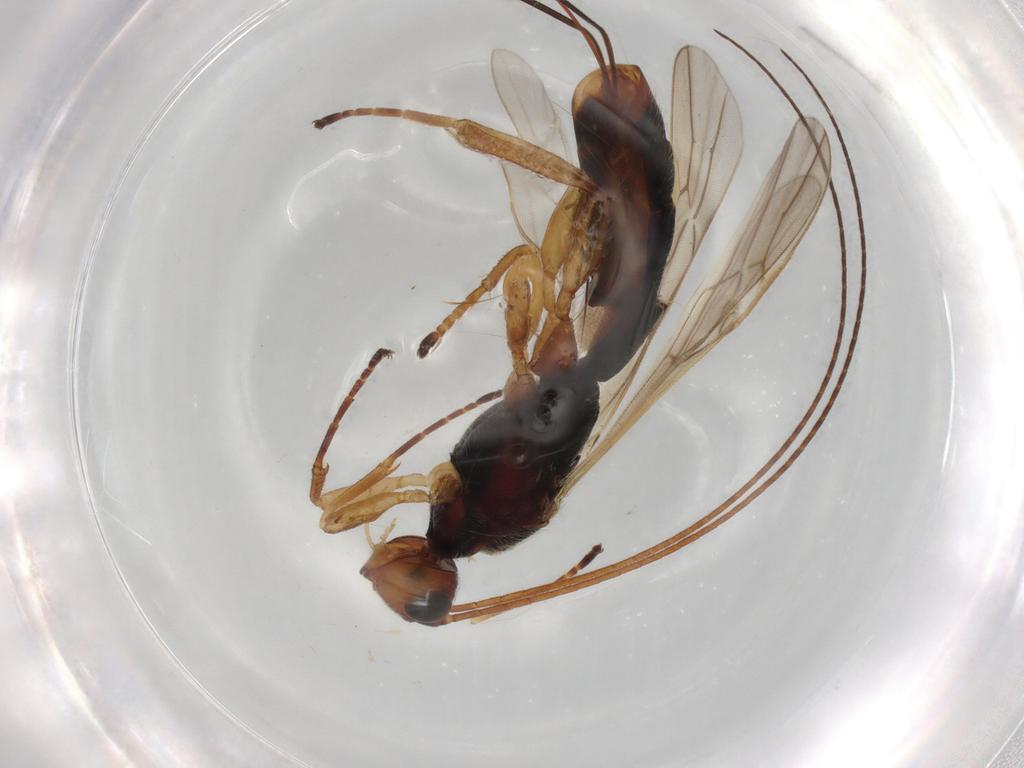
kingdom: Animalia
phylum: Arthropoda
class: Insecta
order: Hymenoptera
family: Braconidae
